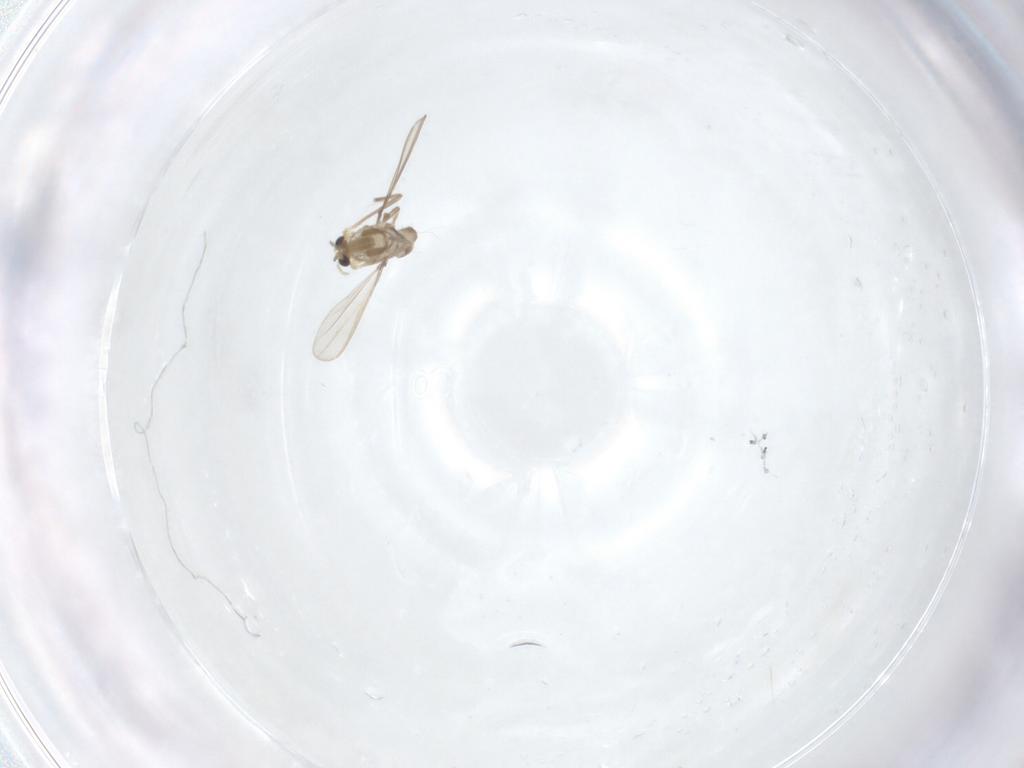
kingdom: Animalia
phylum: Arthropoda
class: Insecta
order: Diptera
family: Chironomidae
